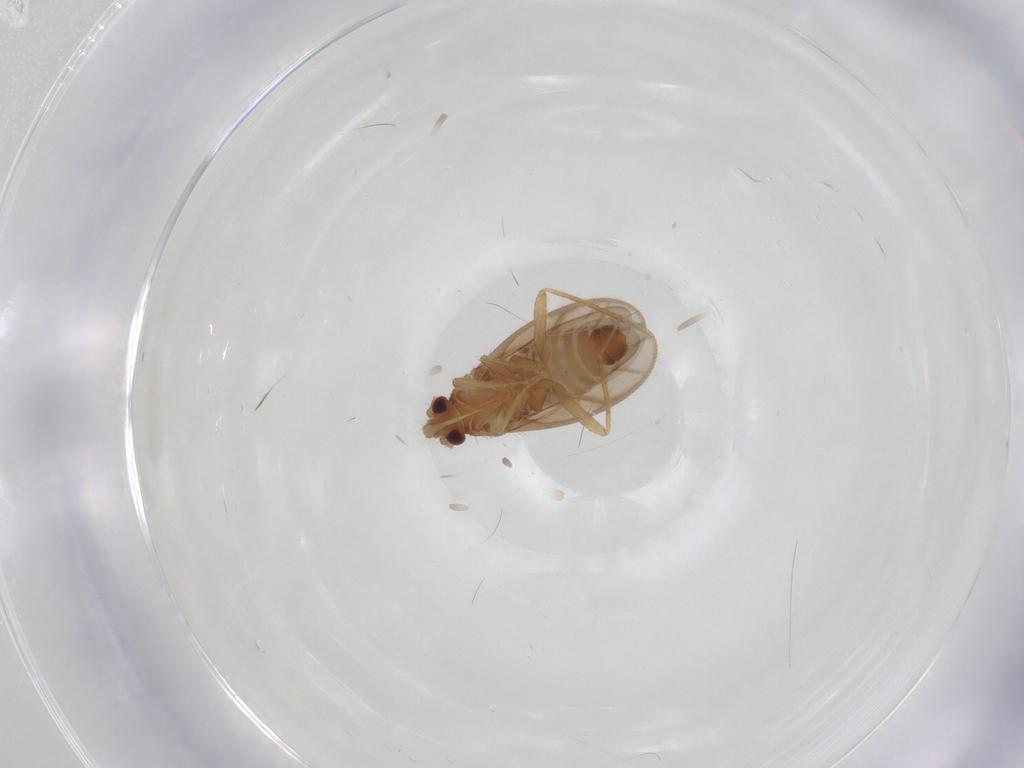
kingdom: Animalia
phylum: Arthropoda
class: Insecta
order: Hemiptera
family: Ceratocombidae
